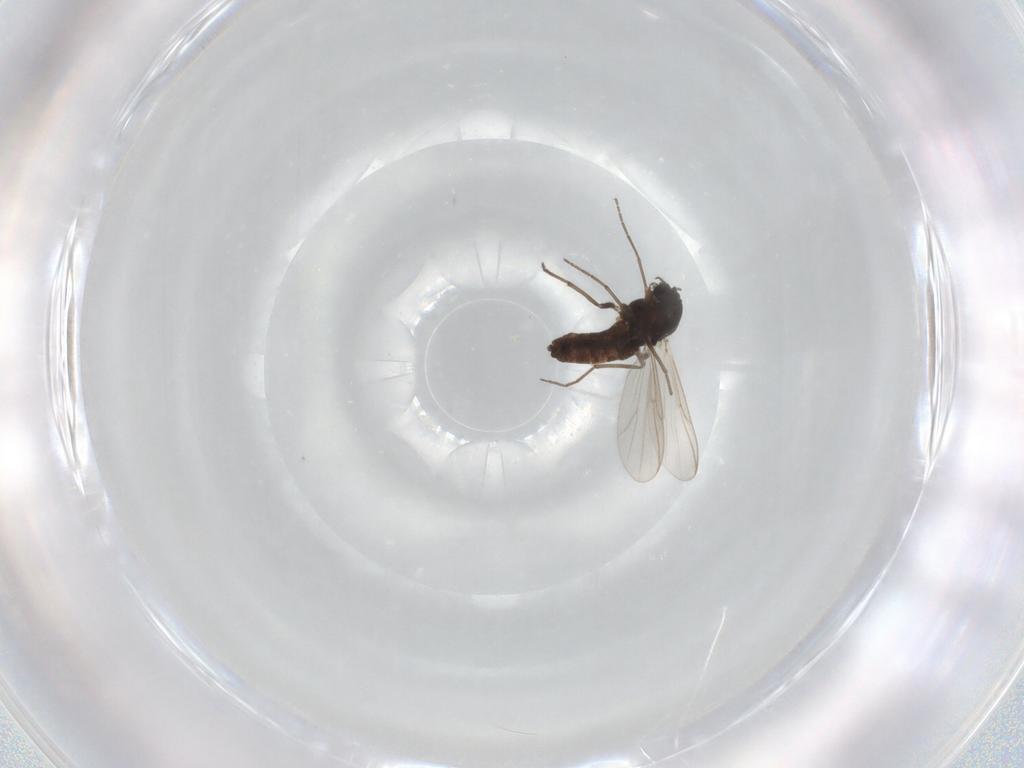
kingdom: Animalia
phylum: Arthropoda
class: Insecta
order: Diptera
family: Chironomidae
